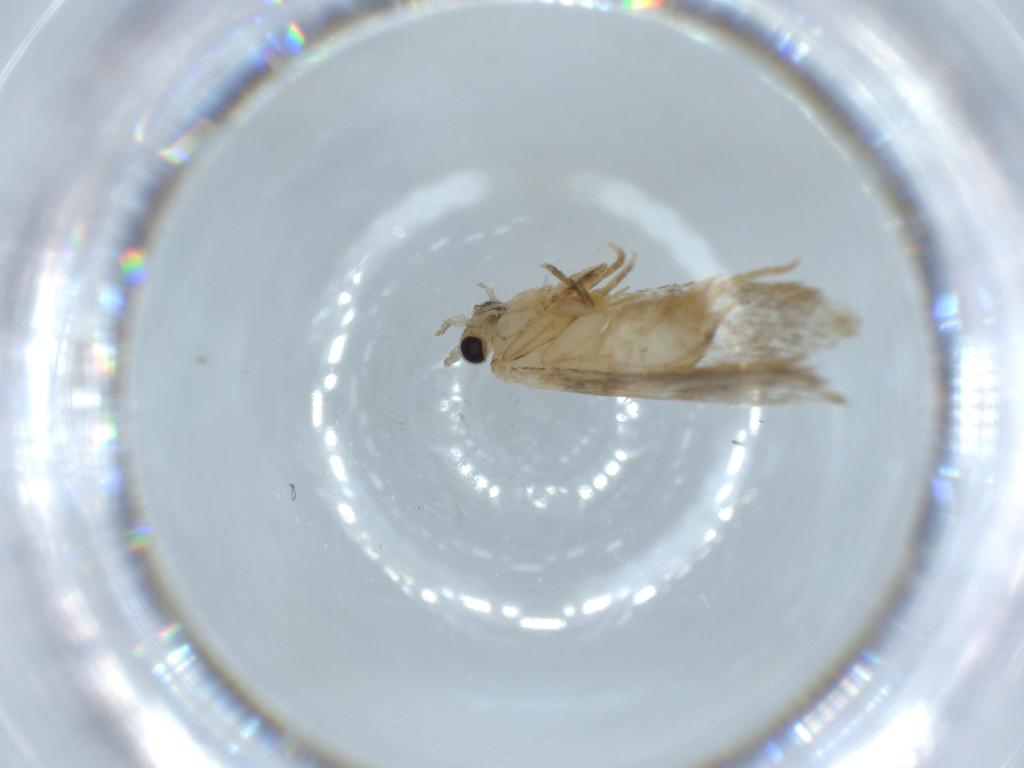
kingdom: Animalia
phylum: Arthropoda
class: Insecta
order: Lepidoptera
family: Tineidae
